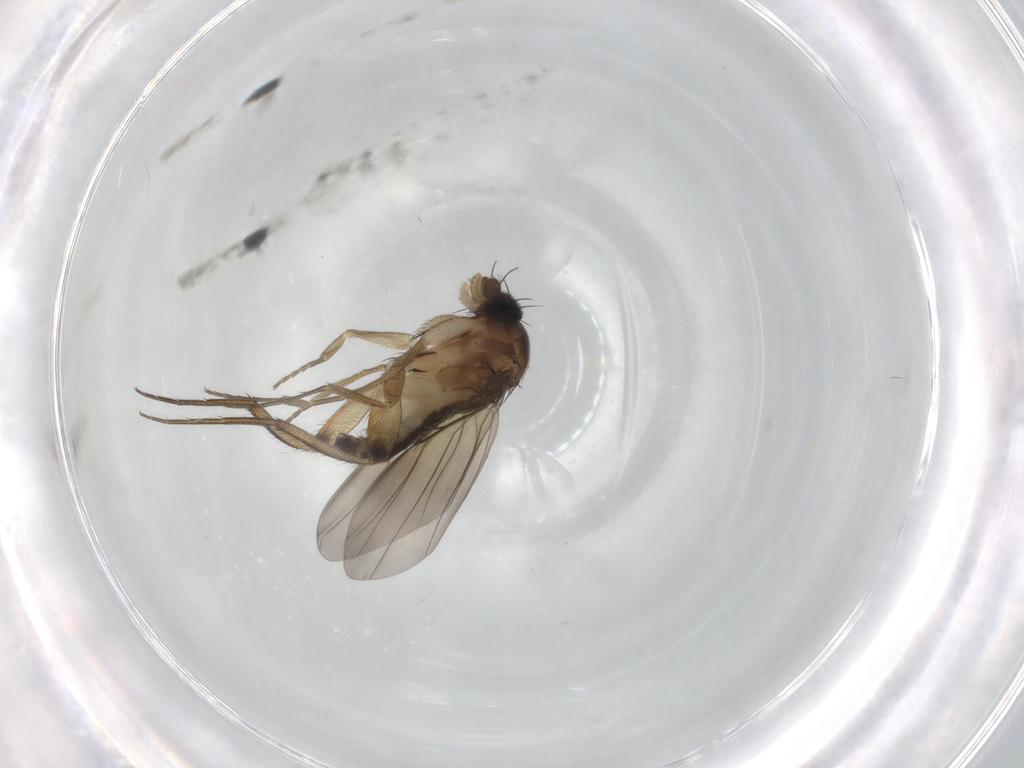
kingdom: Animalia
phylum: Arthropoda
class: Insecta
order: Diptera
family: Phoridae
